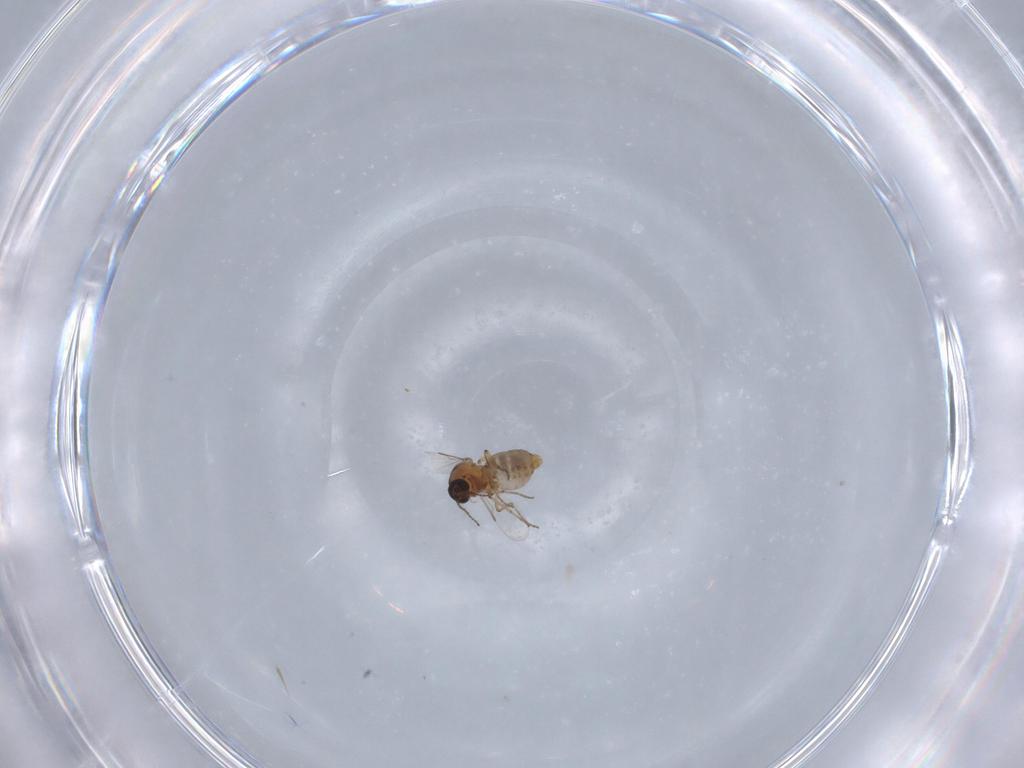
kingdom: Animalia
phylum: Arthropoda
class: Insecta
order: Diptera
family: Ceratopogonidae
